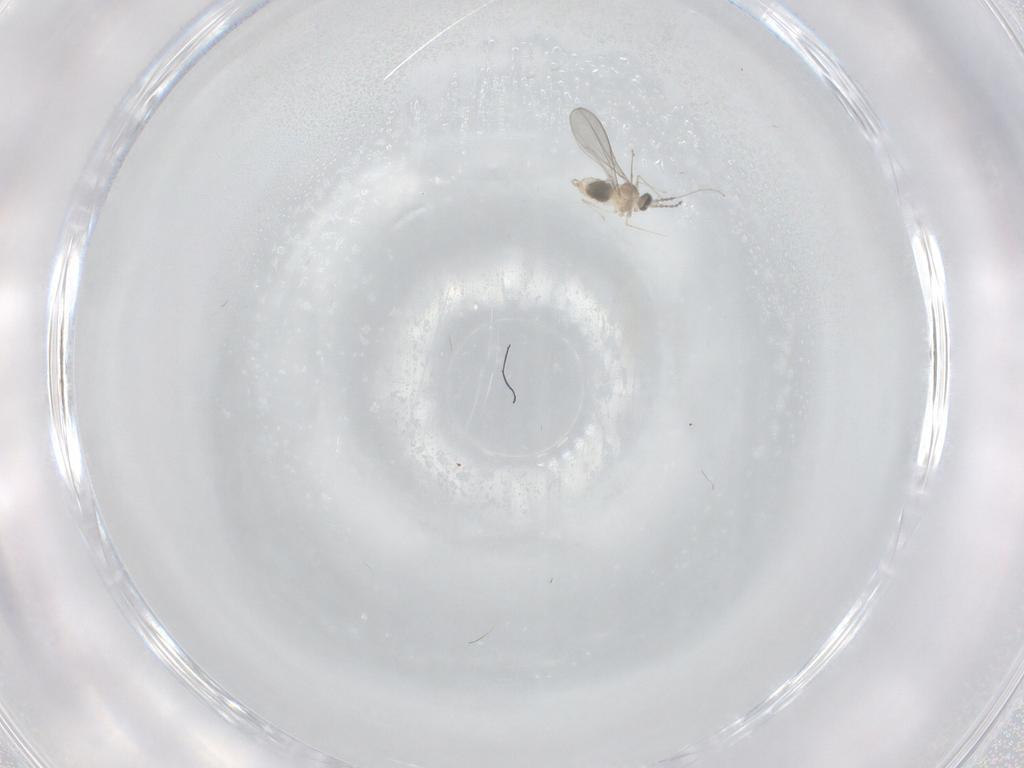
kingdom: Animalia
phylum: Arthropoda
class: Insecta
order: Diptera
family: Cecidomyiidae
